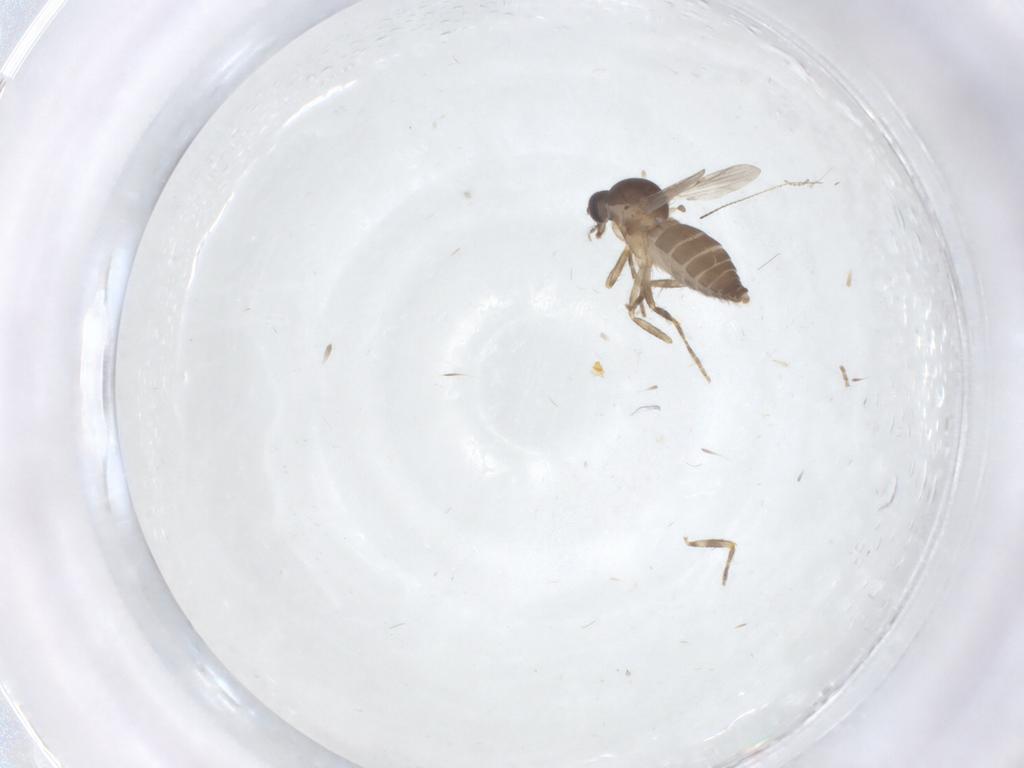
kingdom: Animalia
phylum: Arthropoda
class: Insecta
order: Diptera
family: Ceratopogonidae
